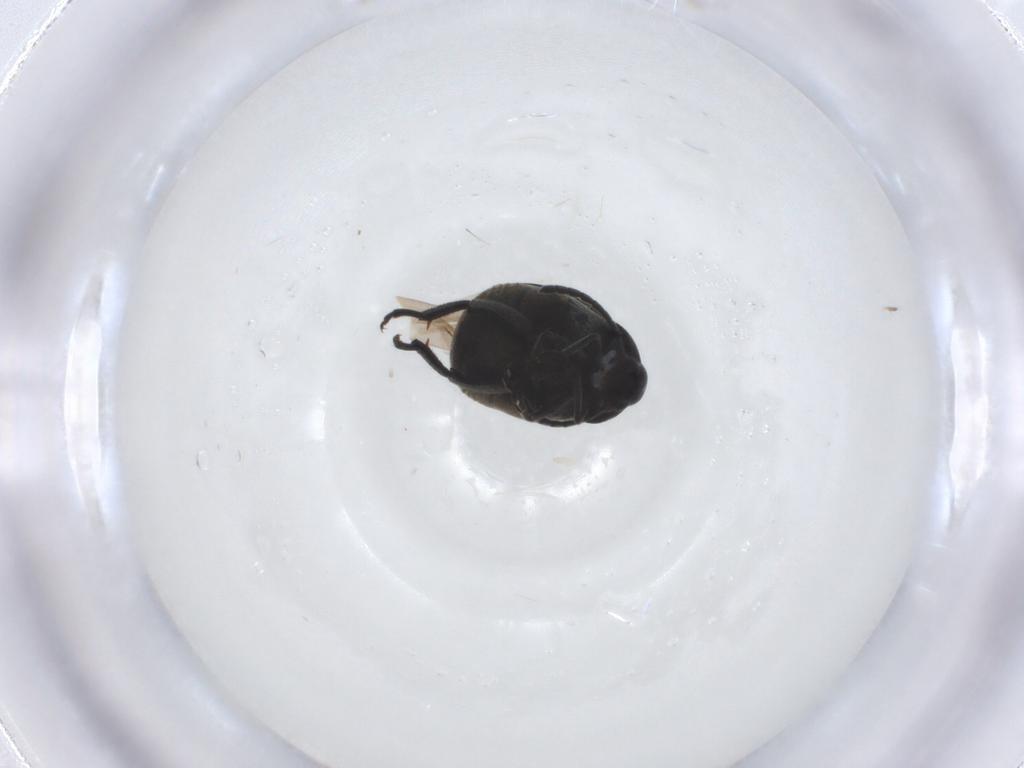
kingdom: Animalia
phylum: Arthropoda
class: Insecta
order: Coleoptera
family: Chrysomelidae
